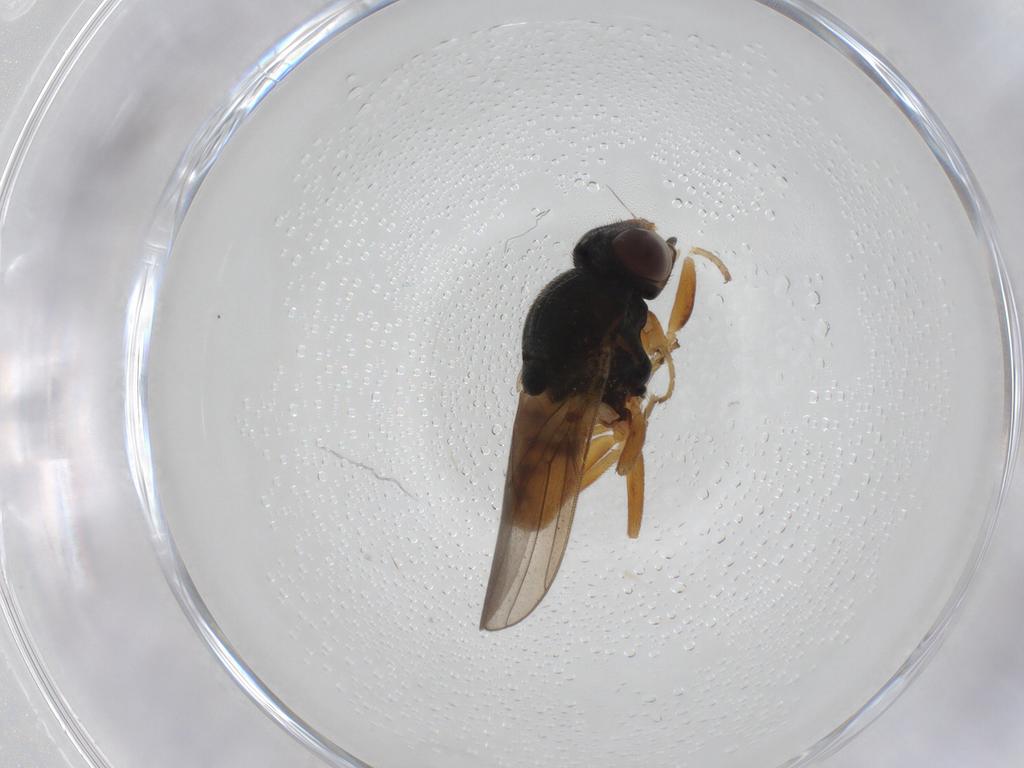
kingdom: Animalia
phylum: Arthropoda
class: Insecta
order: Diptera
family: Chloropidae
